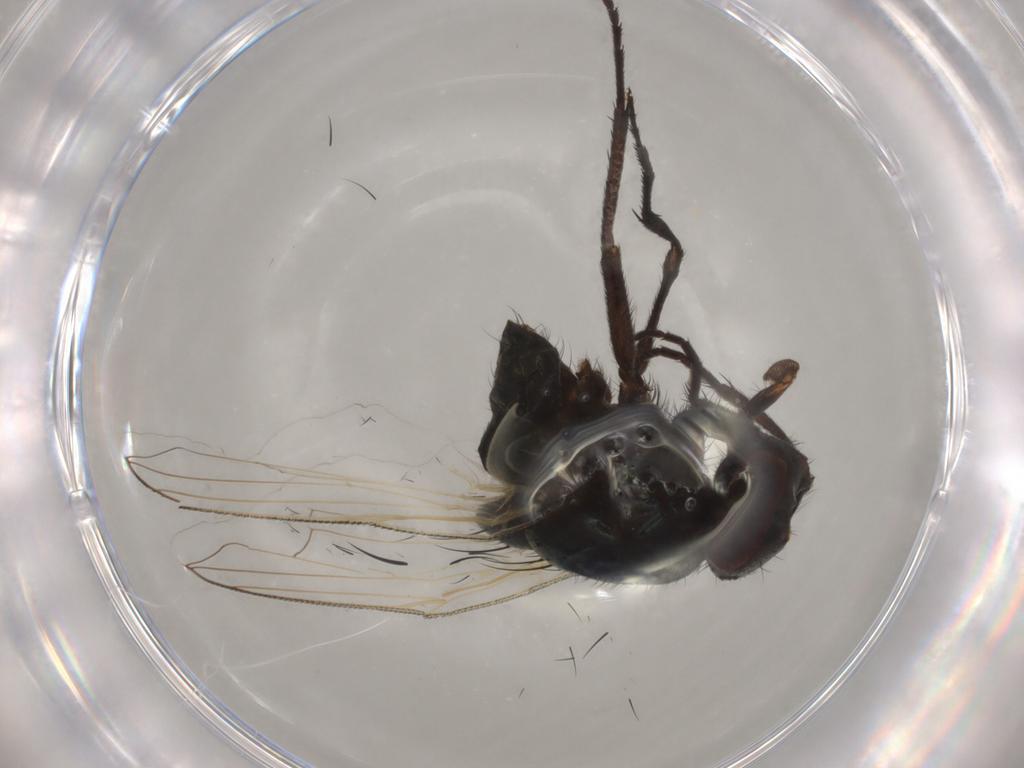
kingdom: Animalia
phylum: Arthropoda
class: Insecta
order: Diptera
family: Muscidae
